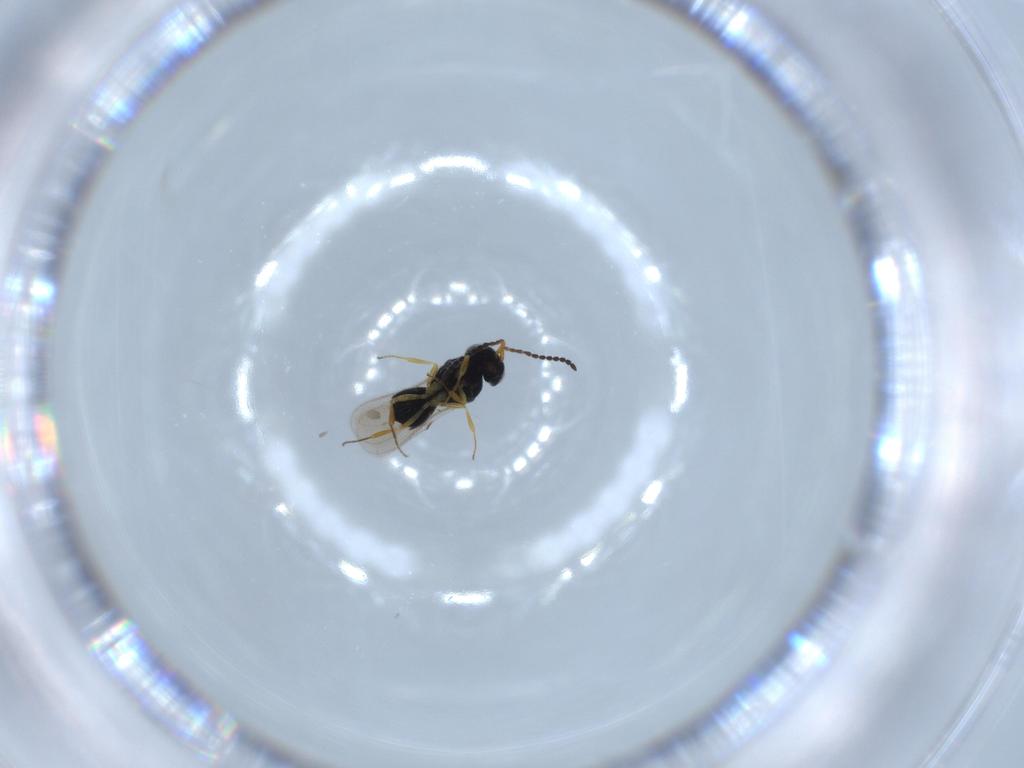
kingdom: Animalia
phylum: Arthropoda
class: Insecta
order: Hymenoptera
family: Scelionidae
